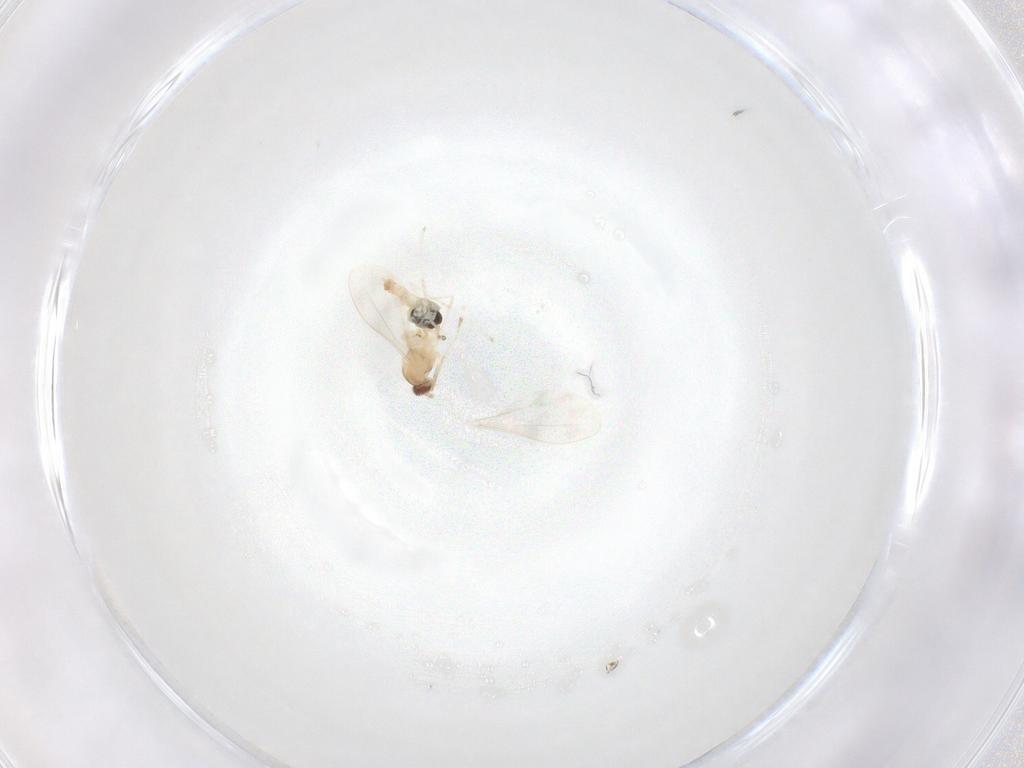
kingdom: Animalia
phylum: Arthropoda
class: Insecta
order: Diptera
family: Cecidomyiidae
